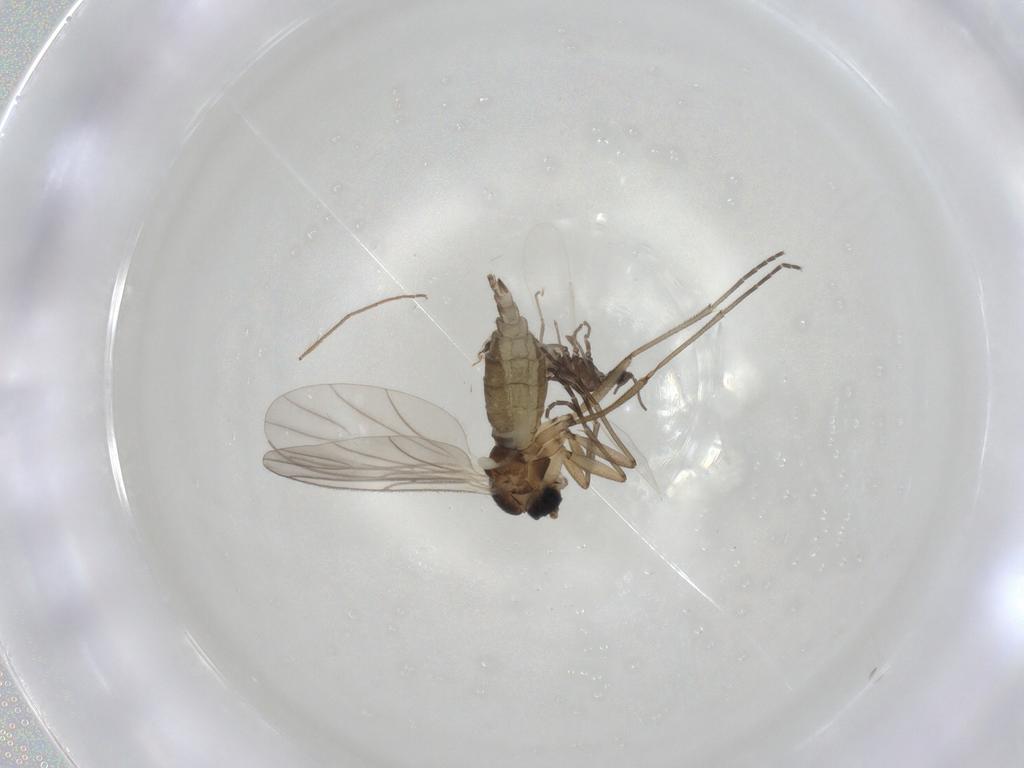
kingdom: Animalia
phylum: Arthropoda
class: Insecta
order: Diptera
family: Cecidomyiidae
